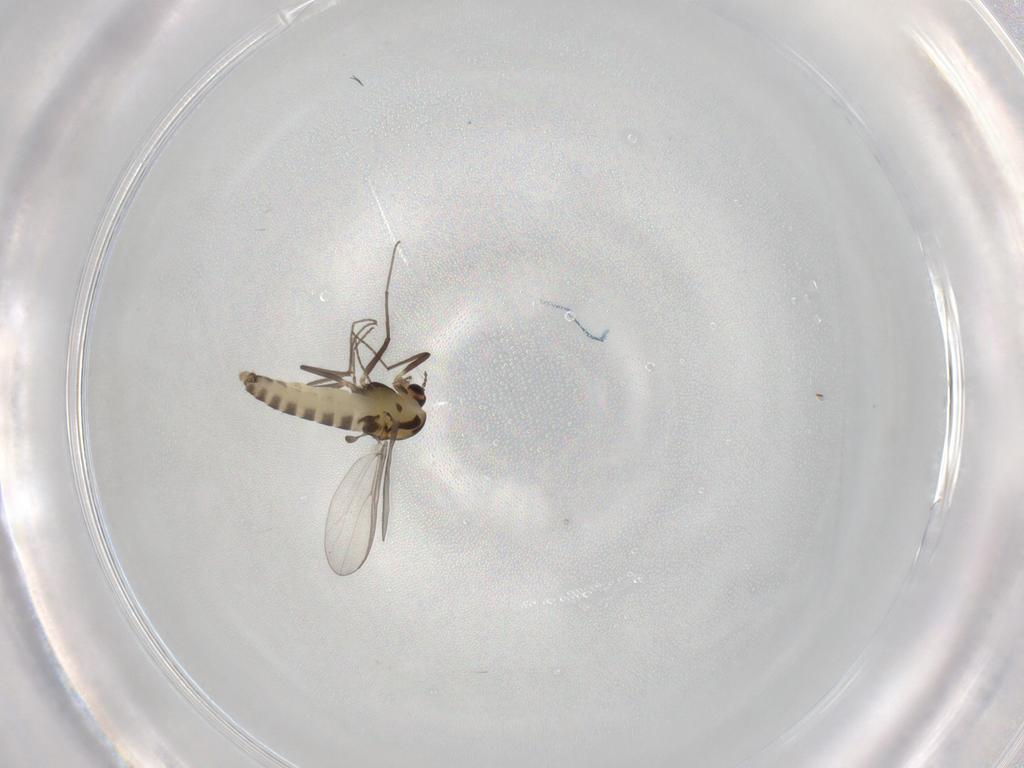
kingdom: Animalia
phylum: Arthropoda
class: Insecta
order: Diptera
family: Chironomidae
